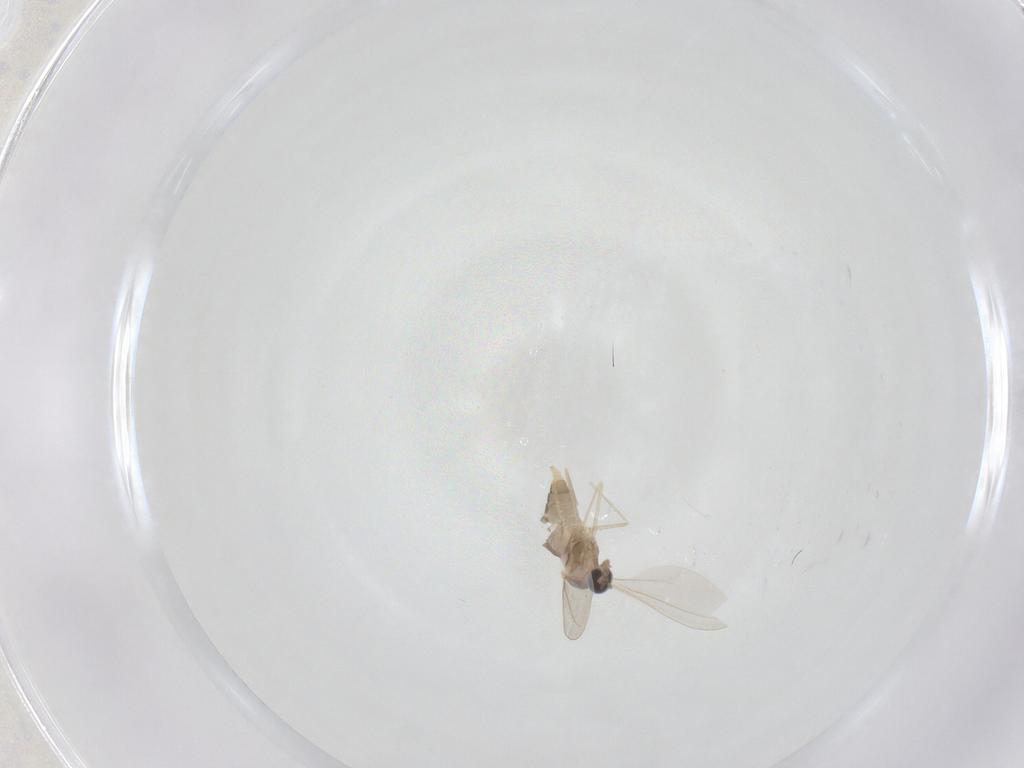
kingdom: Animalia
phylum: Arthropoda
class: Insecta
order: Diptera
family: Cecidomyiidae
